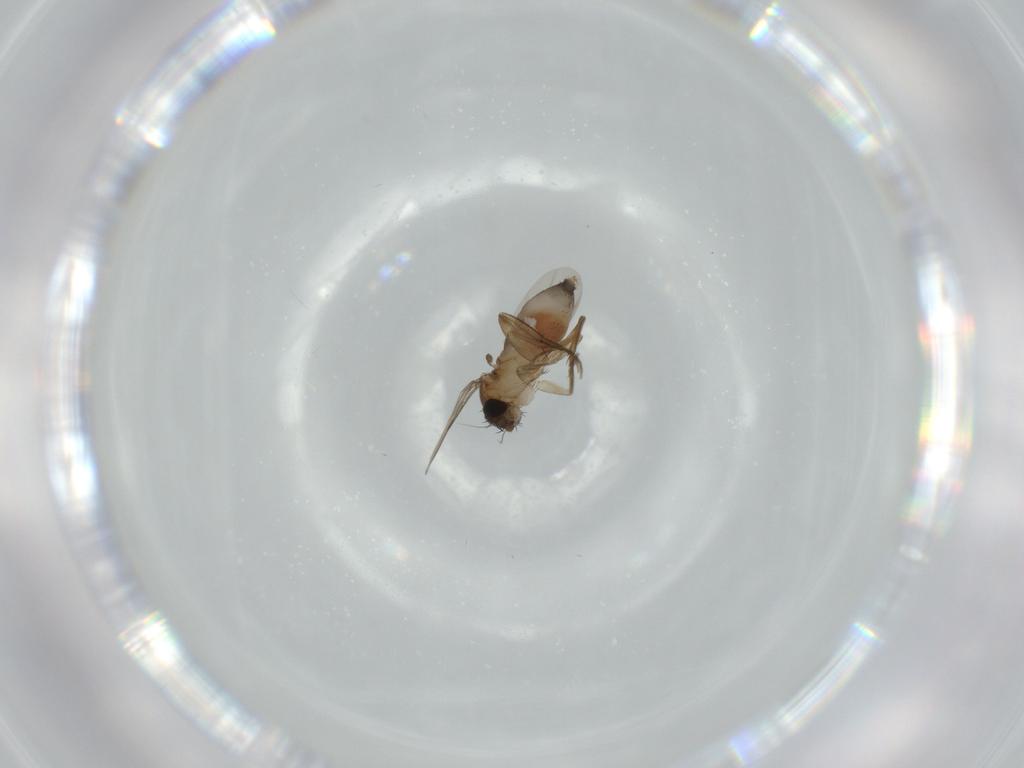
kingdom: Animalia
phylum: Arthropoda
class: Insecta
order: Diptera
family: Phoridae
